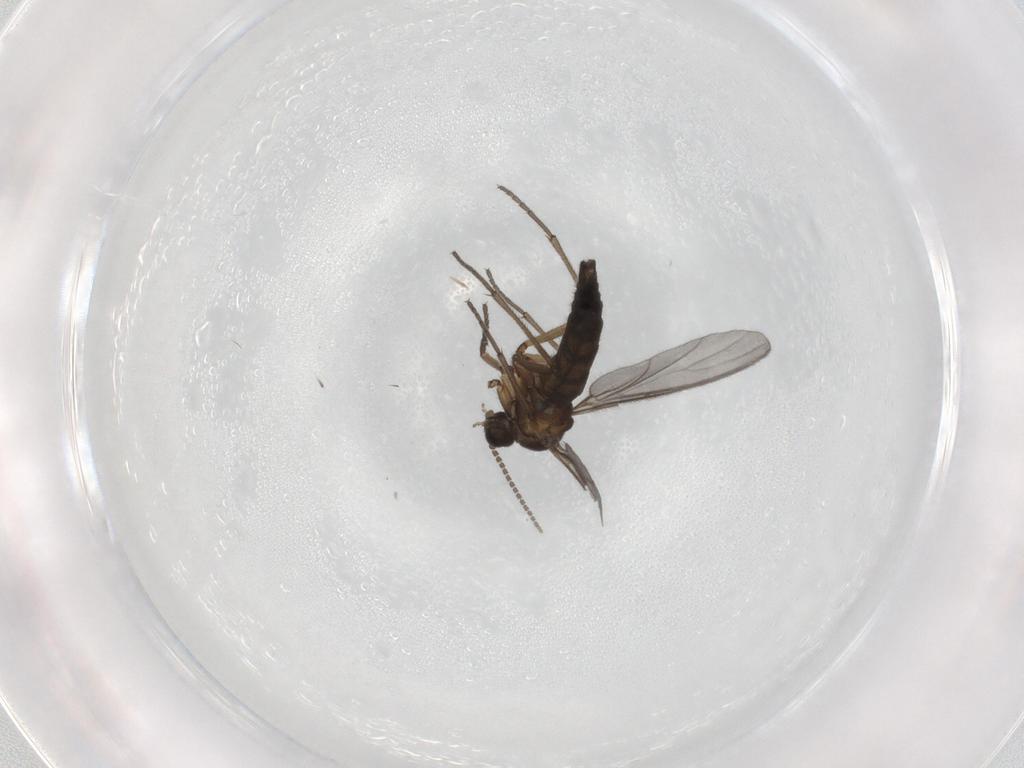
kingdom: Animalia
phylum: Arthropoda
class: Insecta
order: Diptera
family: Sciaridae
